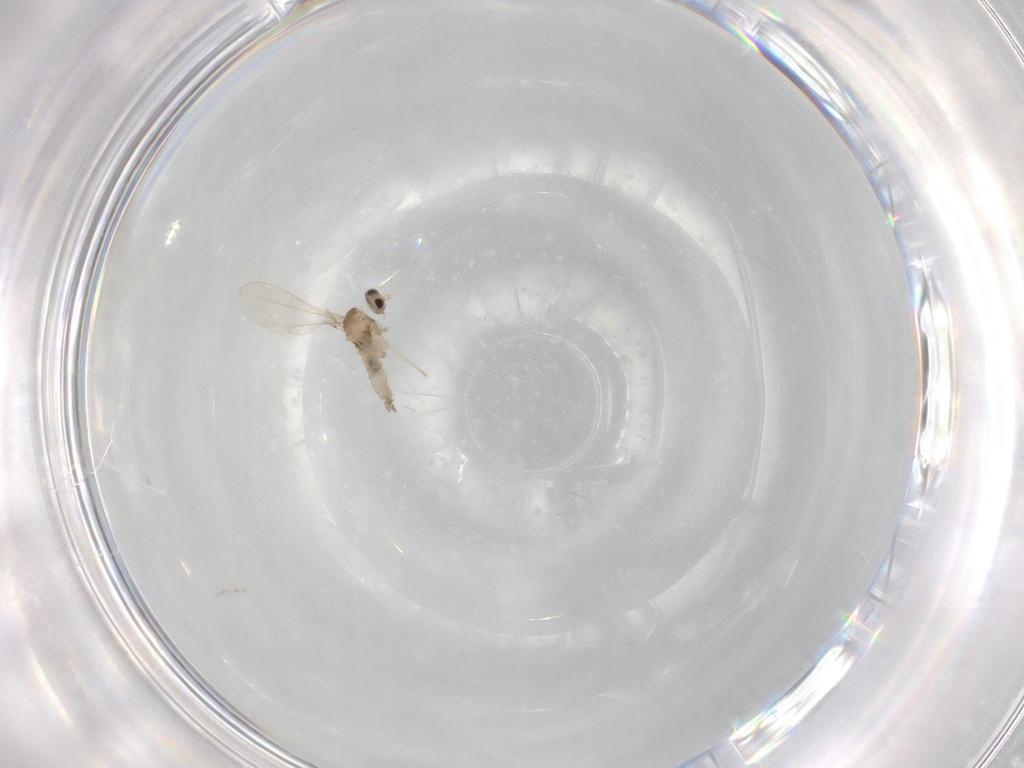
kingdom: Animalia
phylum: Arthropoda
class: Insecta
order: Diptera
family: Cecidomyiidae
